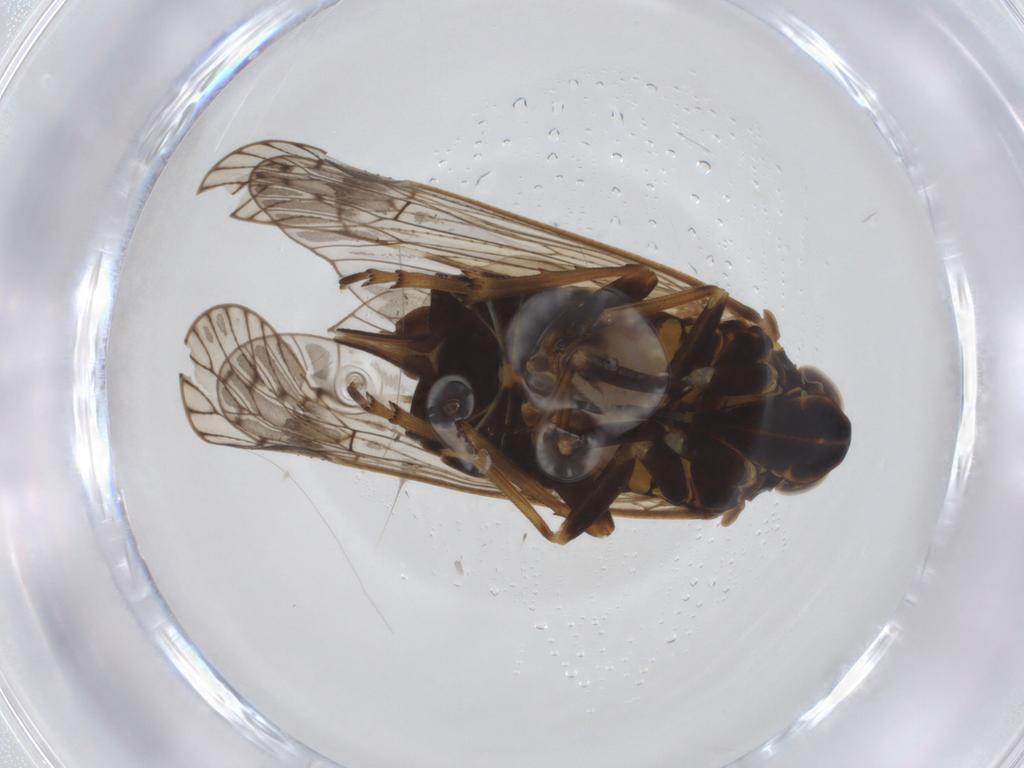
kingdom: Animalia
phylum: Arthropoda
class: Insecta
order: Hemiptera
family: Cixiidae
